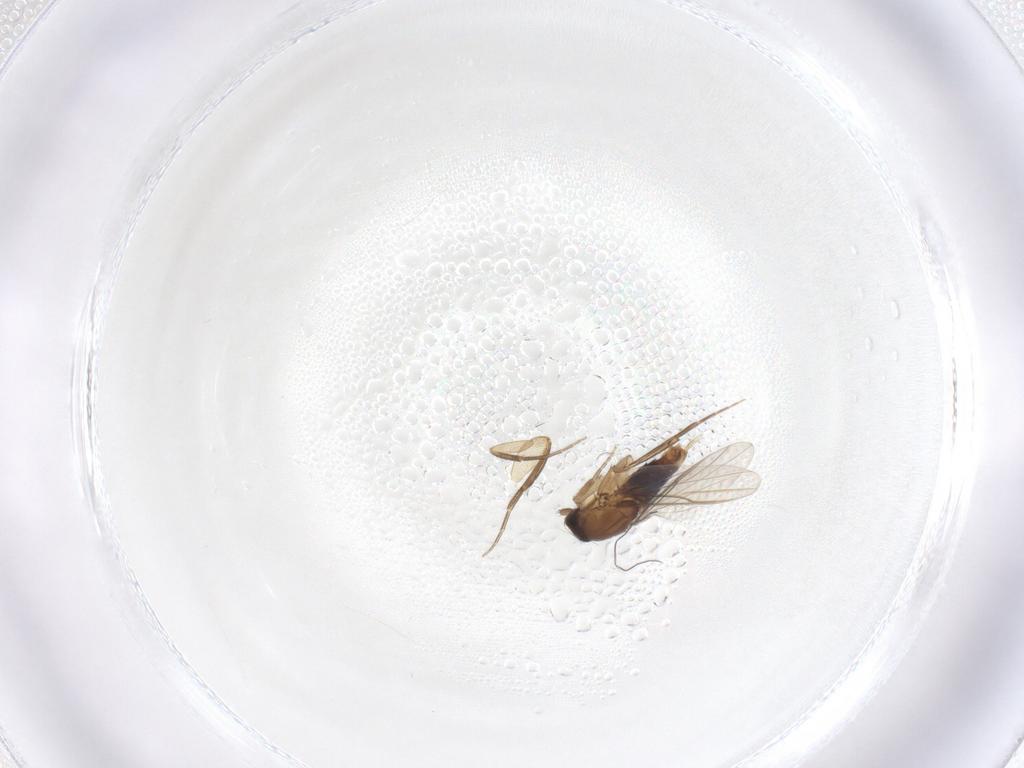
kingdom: Animalia
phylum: Arthropoda
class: Insecta
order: Diptera
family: Phoridae
